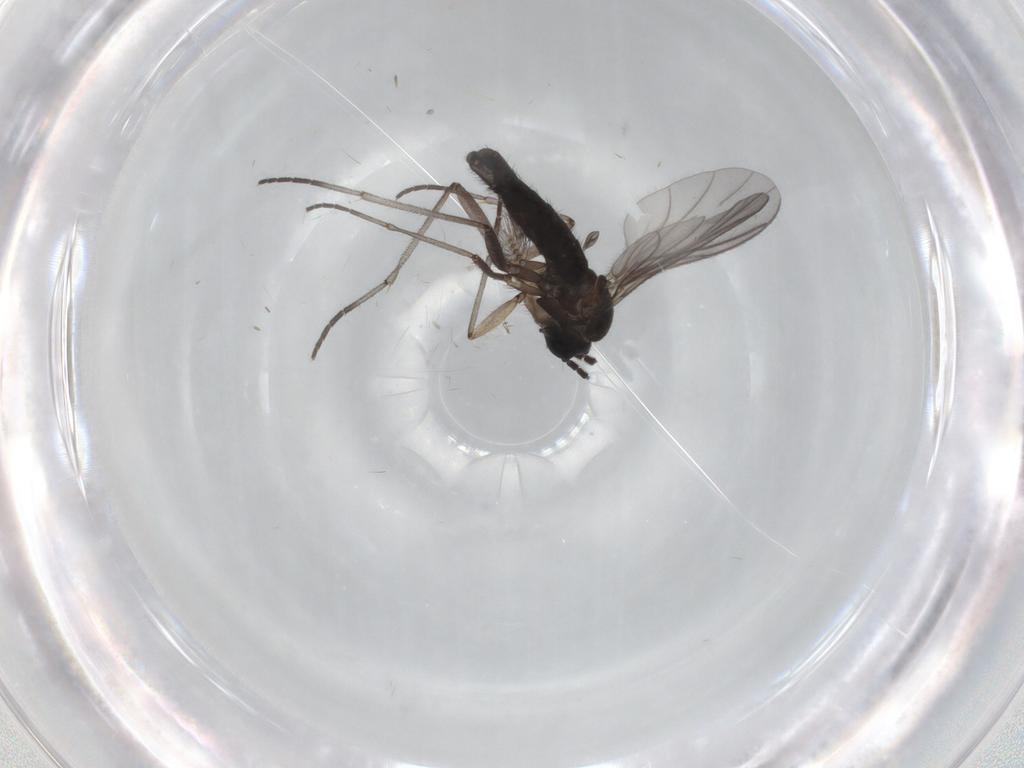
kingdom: Animalia
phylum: Arthropoda
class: Insecta
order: Diptera
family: Sciaridae
